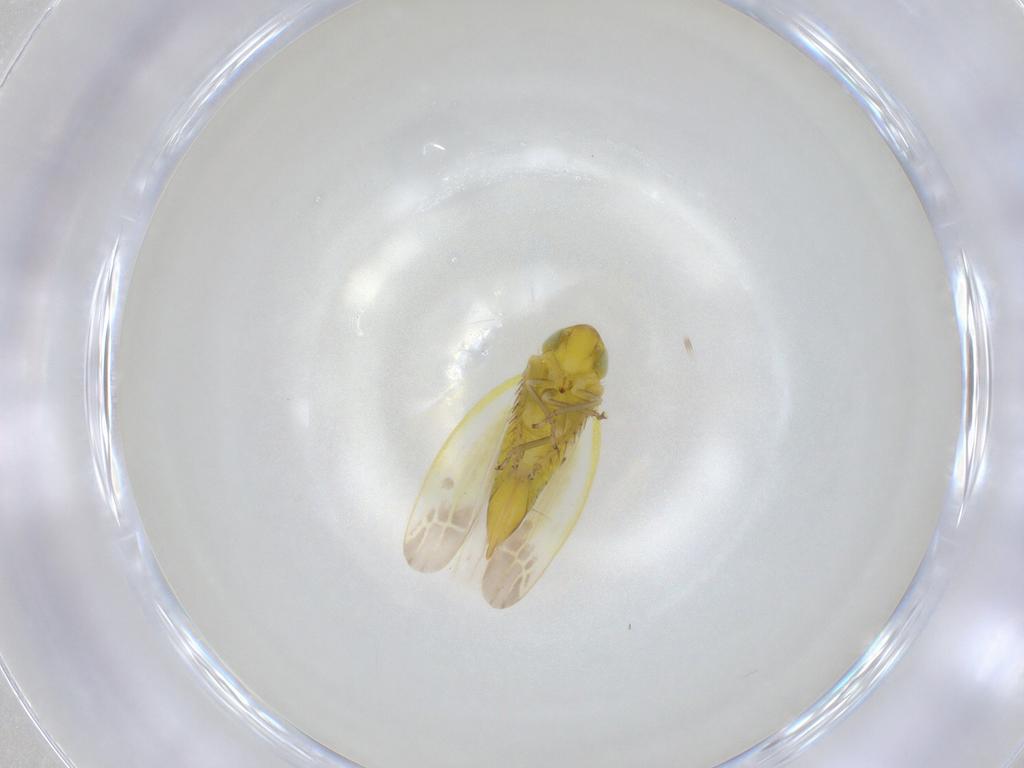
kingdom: Animalia
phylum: Arthropoda
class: Insecta
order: Hemiptera
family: Cicadellidae
